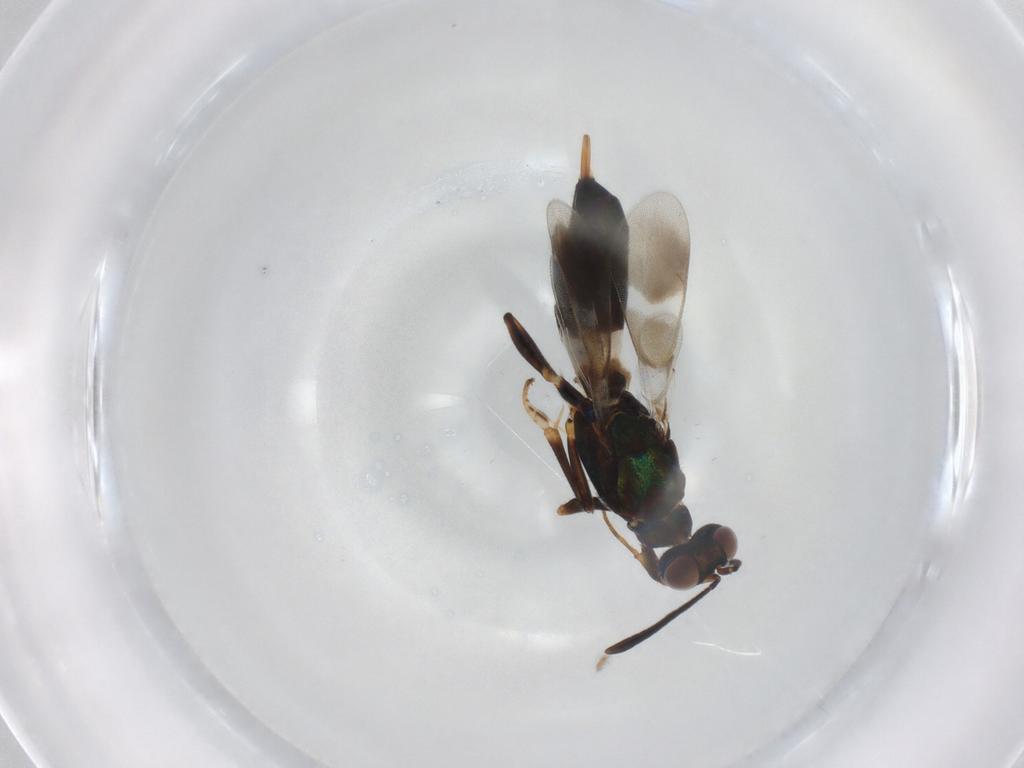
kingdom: Animalia
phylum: Arthropoda
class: Insecta
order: Hymenoptera
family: Eupelmidae
